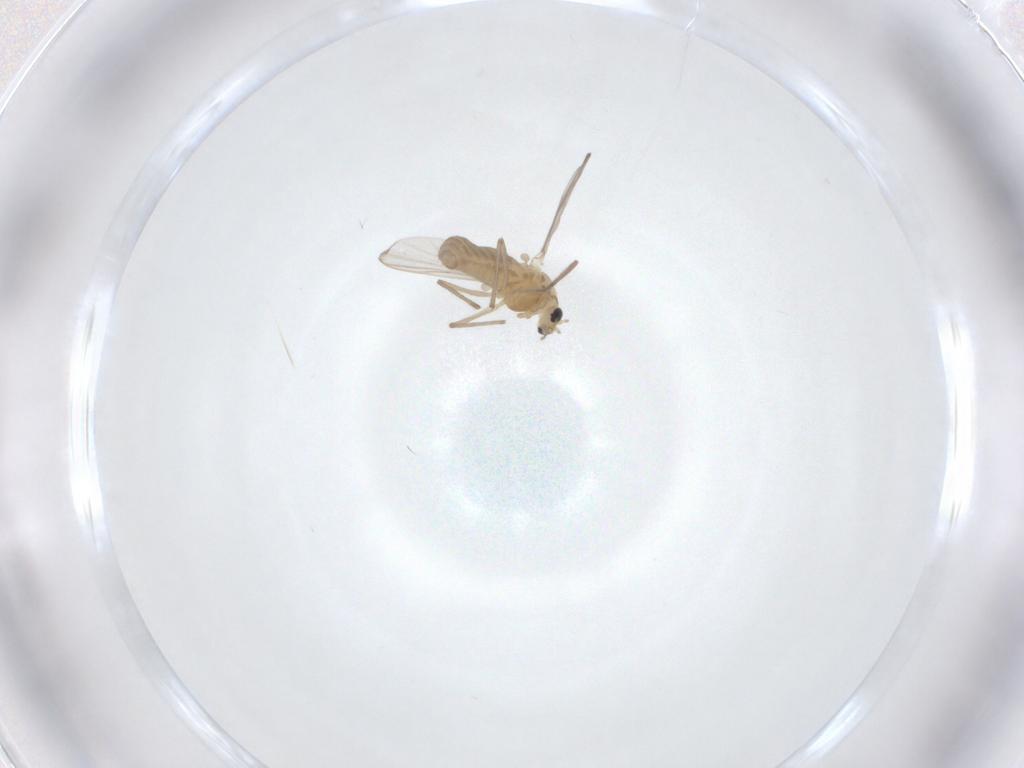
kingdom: Animalia
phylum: Arthropoda
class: Insecta
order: Diptera
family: Chironomidae
